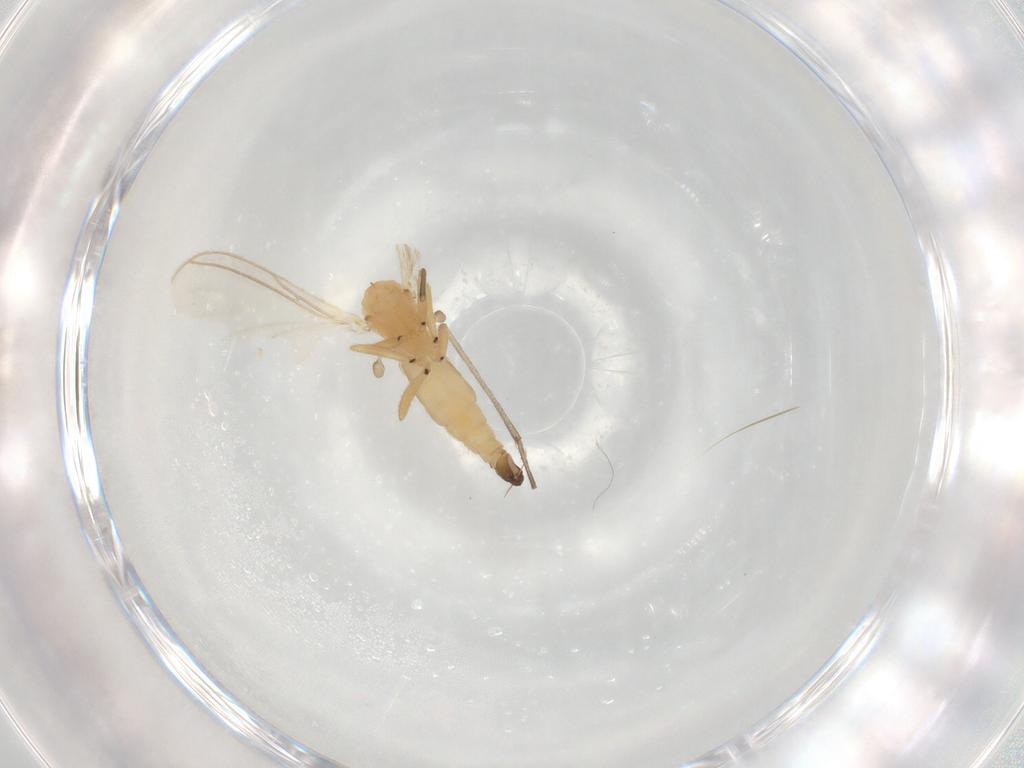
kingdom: Animalia
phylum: Arthropoda
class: Insecta
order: Diptera
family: Sciaridae
